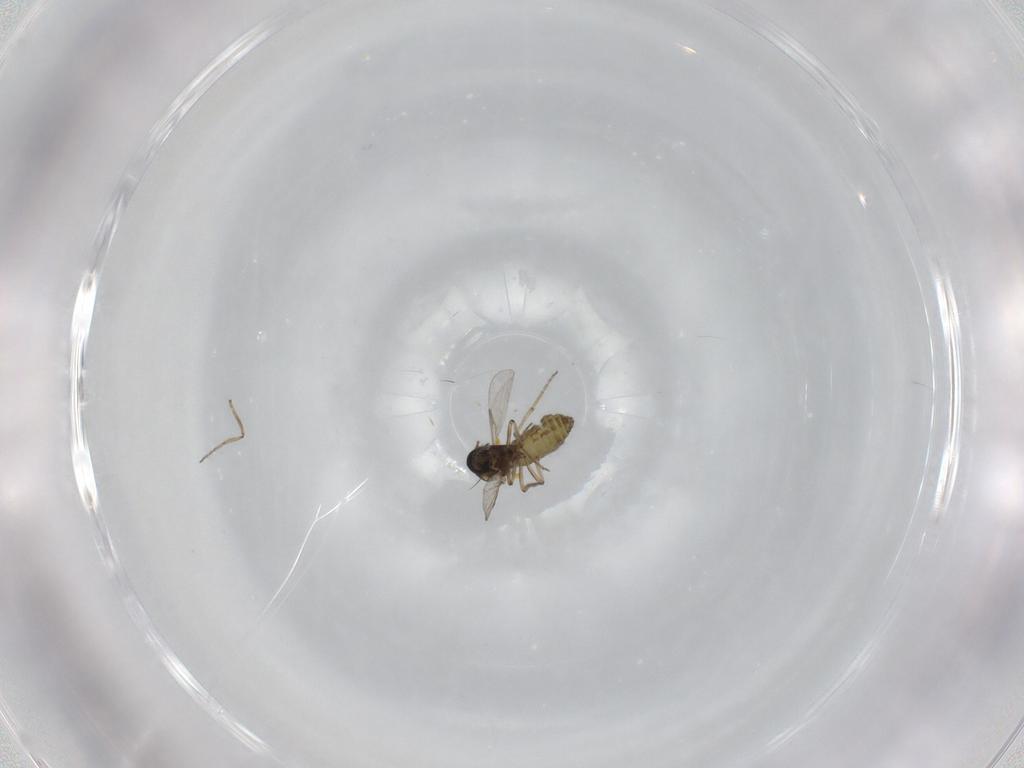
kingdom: Animalia
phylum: Arthropoda
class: Insecta
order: Diptera
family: Ceratopogonidae
